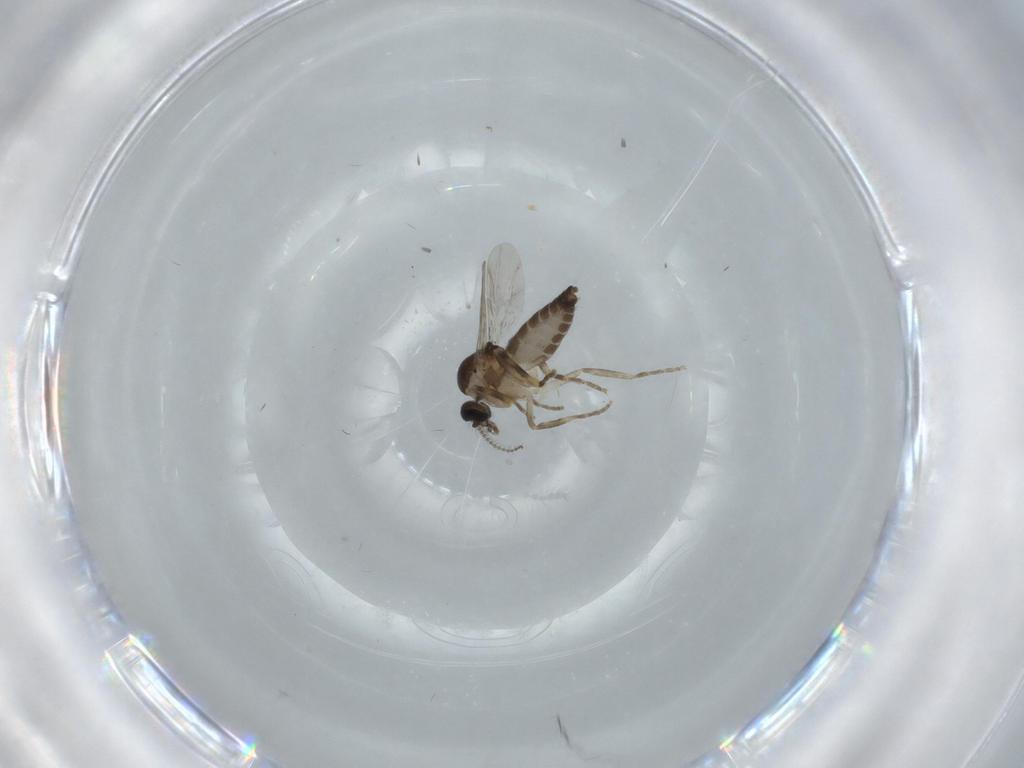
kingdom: Animalia
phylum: Arthropoda
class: Insecta
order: Diptera
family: Ceratopogonidae
